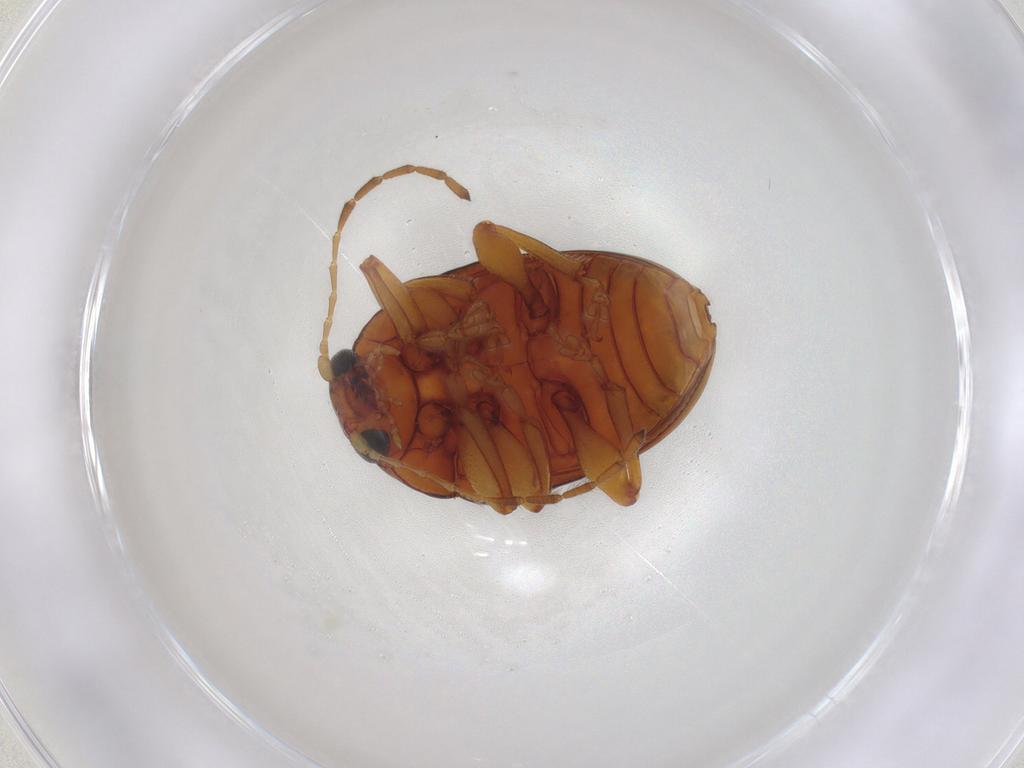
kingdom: Animalia
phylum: Arthropoda
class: Insecta
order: Coleoptera
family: Chrysomelidae
